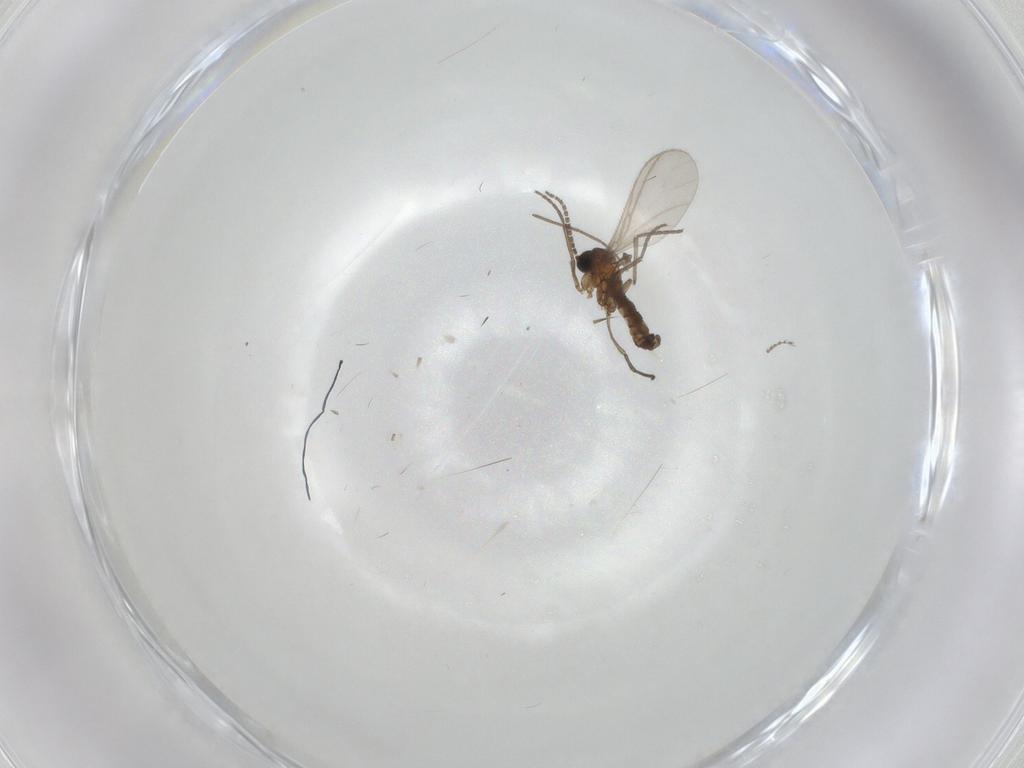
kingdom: Animalia
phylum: Arthropoda
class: Insecta
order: Diptera
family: Sciaridae
